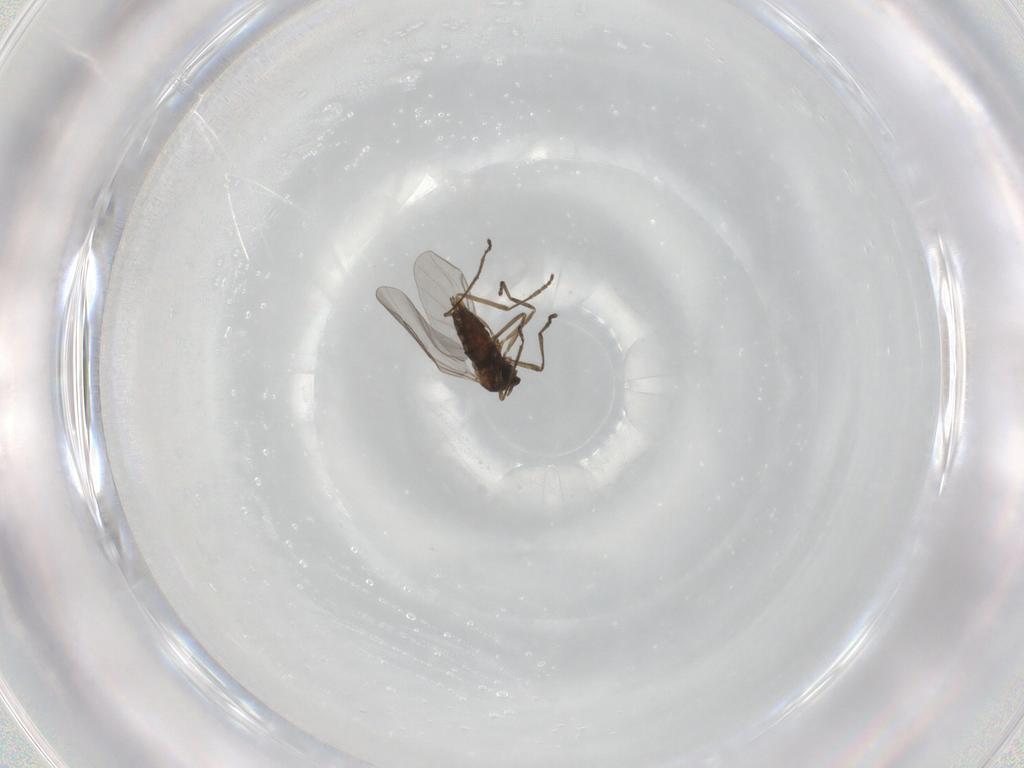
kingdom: Animalia
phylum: Arthropoda
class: Insecta
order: Diptera
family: Cecidomyiidae
